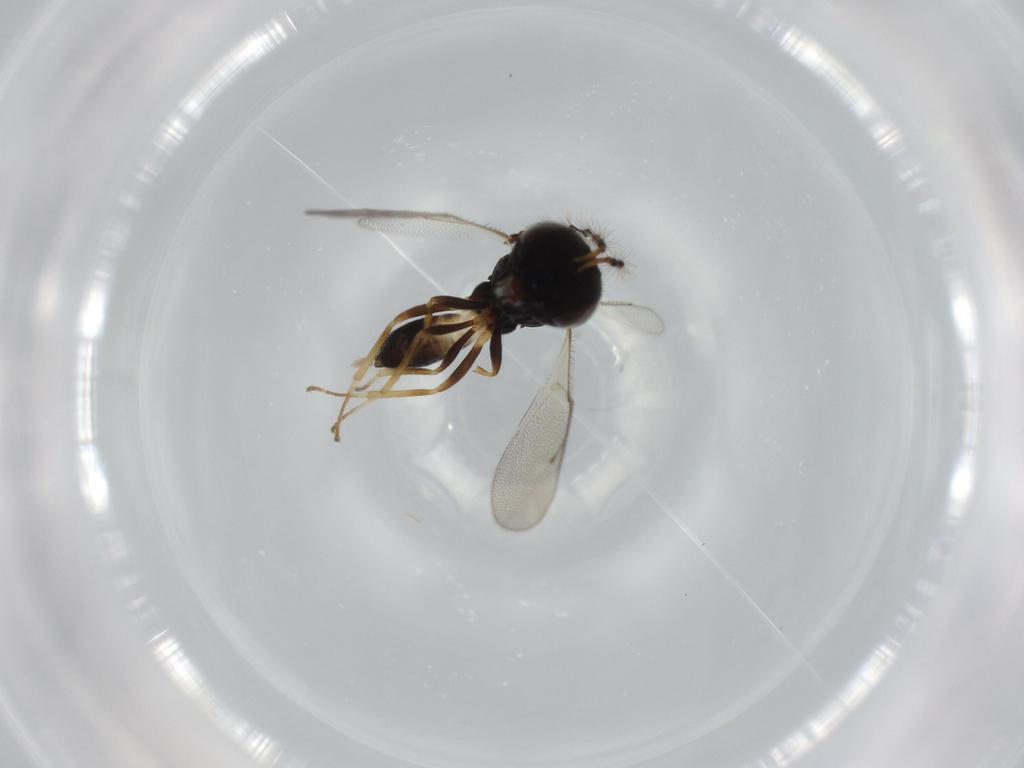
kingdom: Animalia
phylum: Arthropoda
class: Insecta
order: Hymenoptera
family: Pteromalidae
